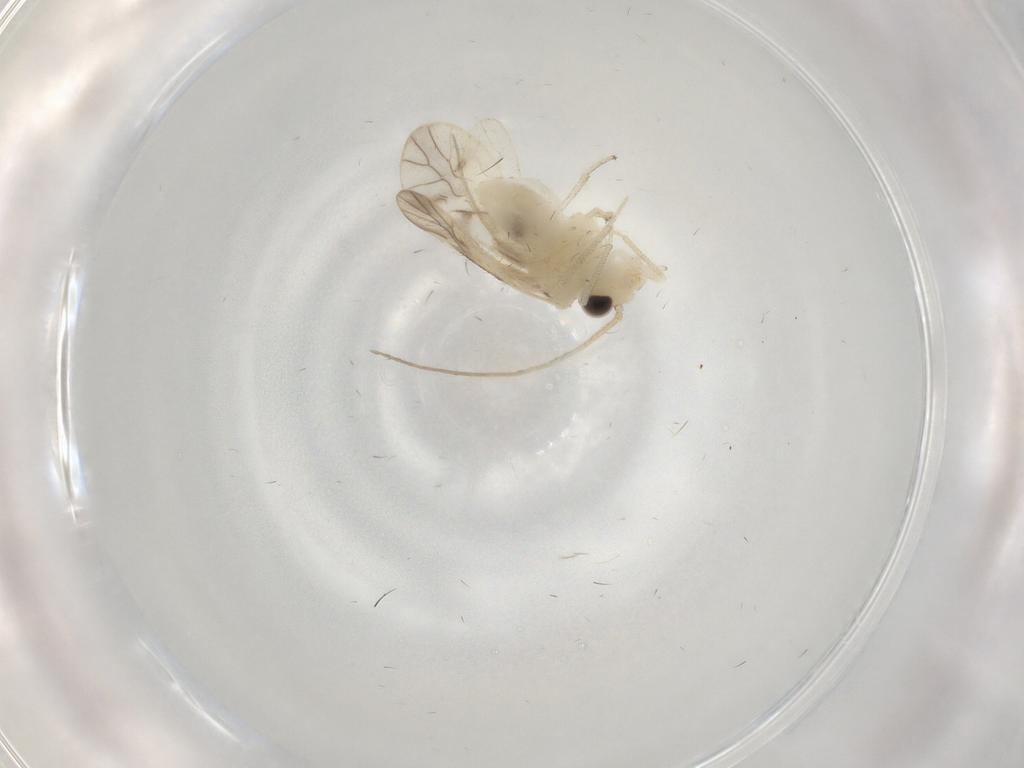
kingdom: Animalia
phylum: Arthropoda
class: Insecta
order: Psocodea
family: Caeciliusidae
